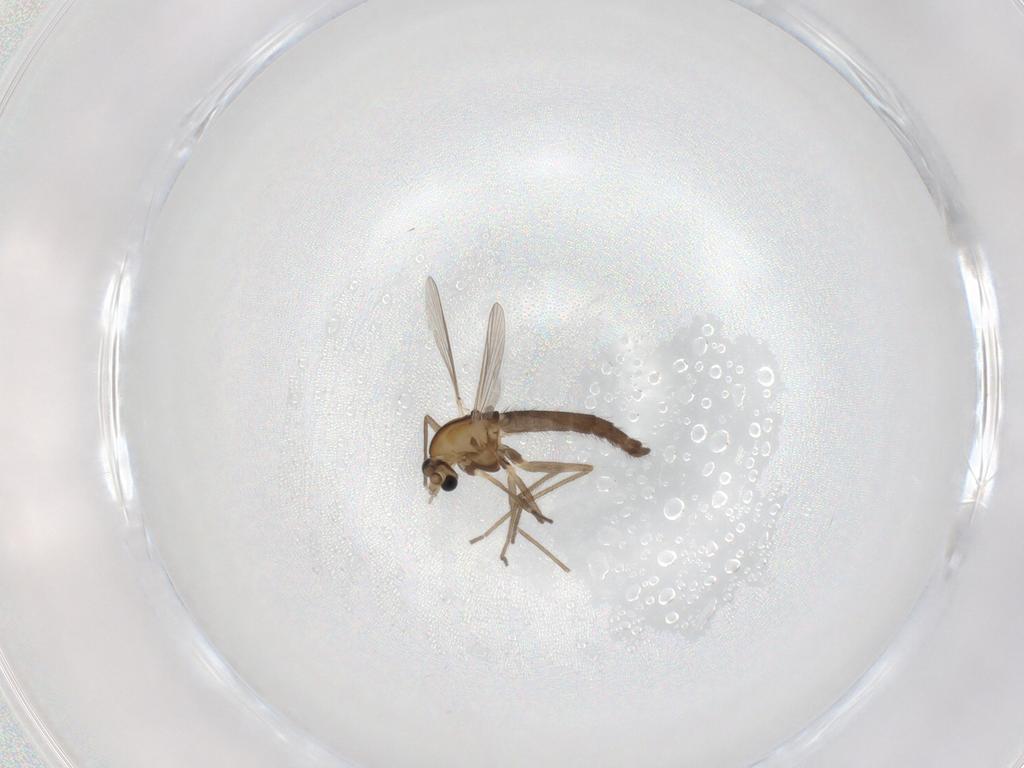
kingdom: Animalia
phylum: Arthropoda
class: Insecta
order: Diptera
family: Chironomidae
